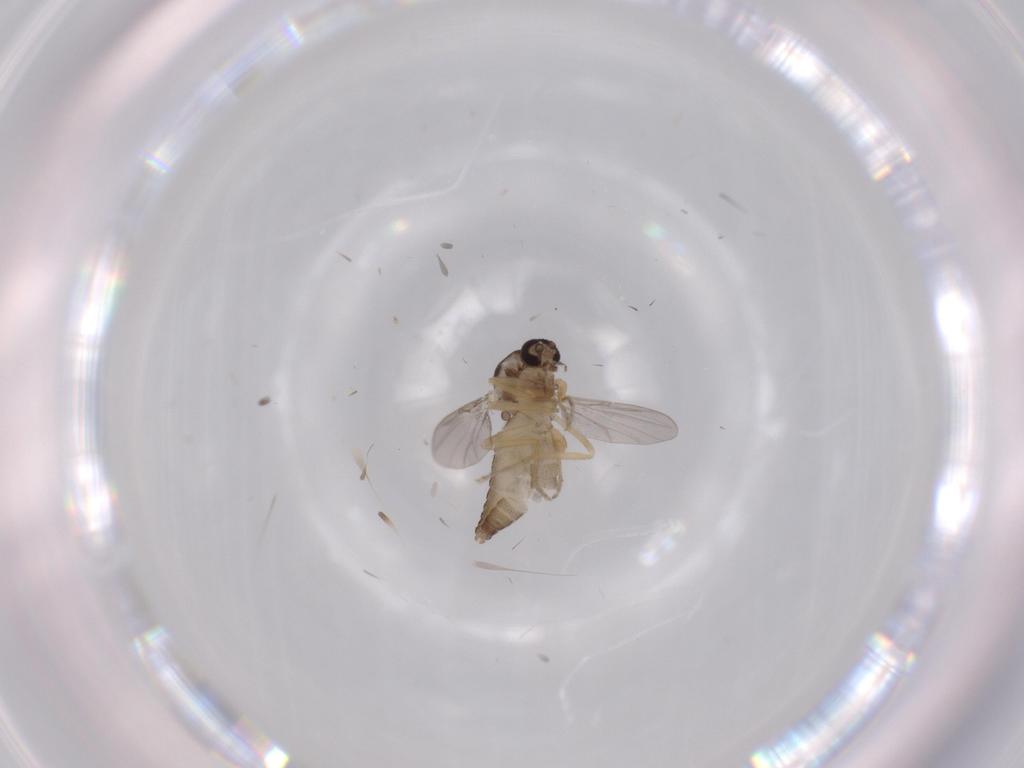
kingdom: Animalia
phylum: Arthropoda
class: Insecta
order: Diptera
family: Ceratopogonidae
